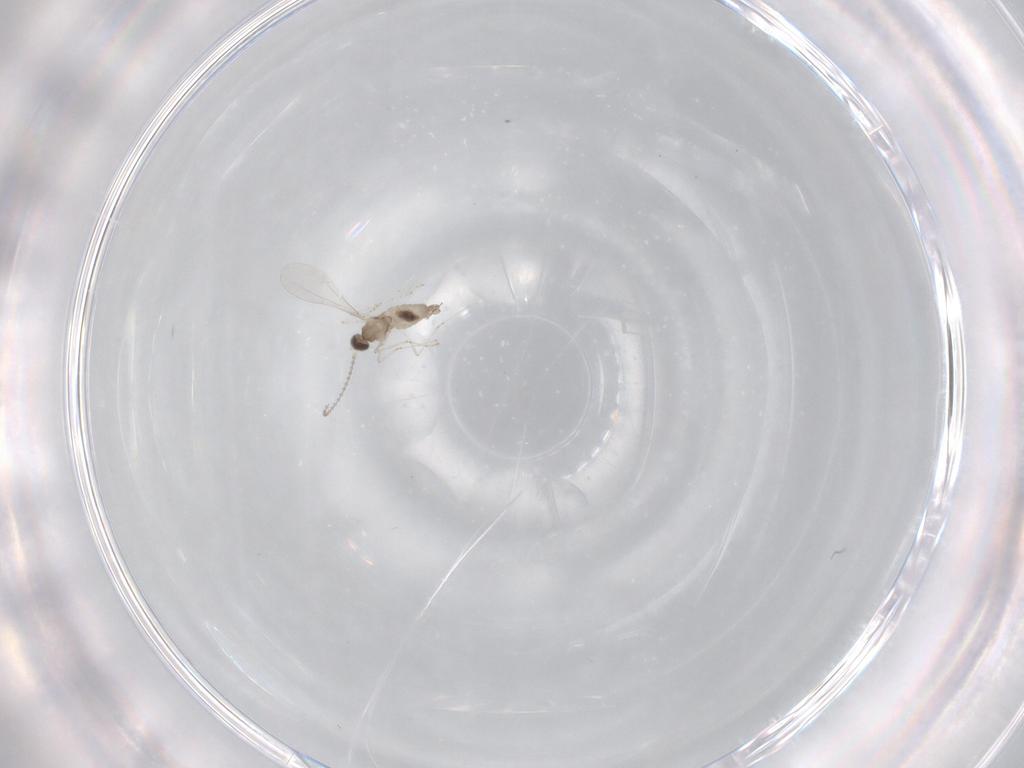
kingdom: Animalia
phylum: Arthropoda
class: Insecta
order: Diptera
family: Cecidomyiidae
